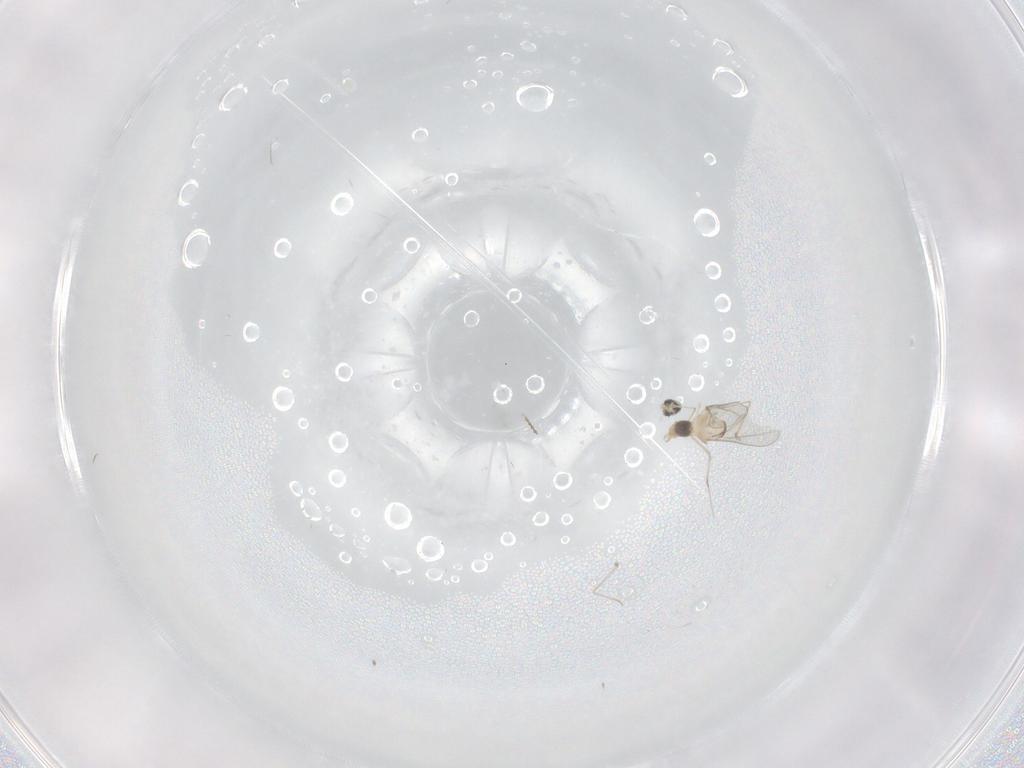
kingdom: Animalia
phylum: Arthropoda
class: Insecta
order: Diptera
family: Cecidomyiidae
